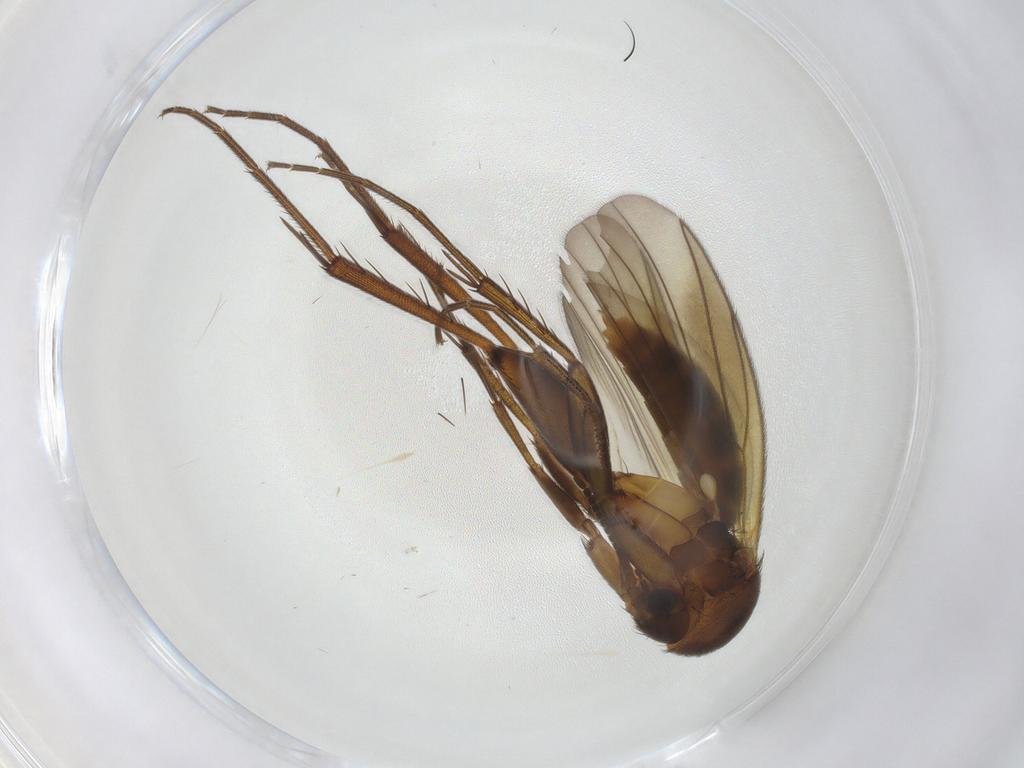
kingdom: Animalia
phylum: Arthropoda
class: Insecta
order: Diptera
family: Mycetophilidae
